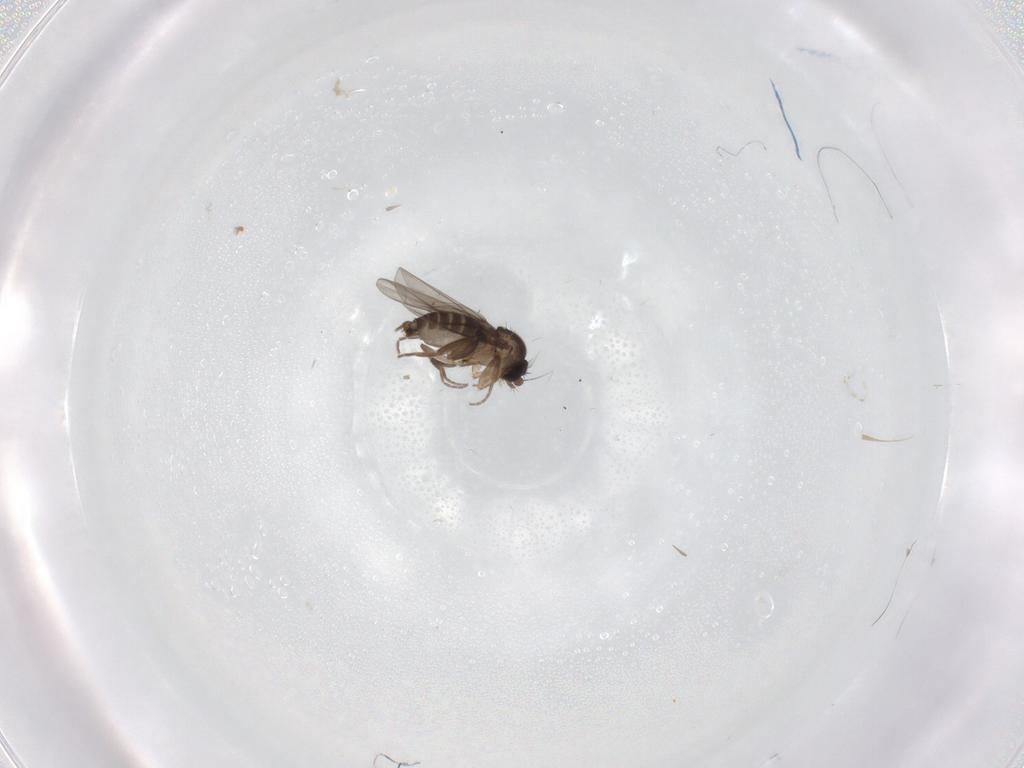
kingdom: Animalia
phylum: Arthropoda
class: Insecta
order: Diptera
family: Phoridae
